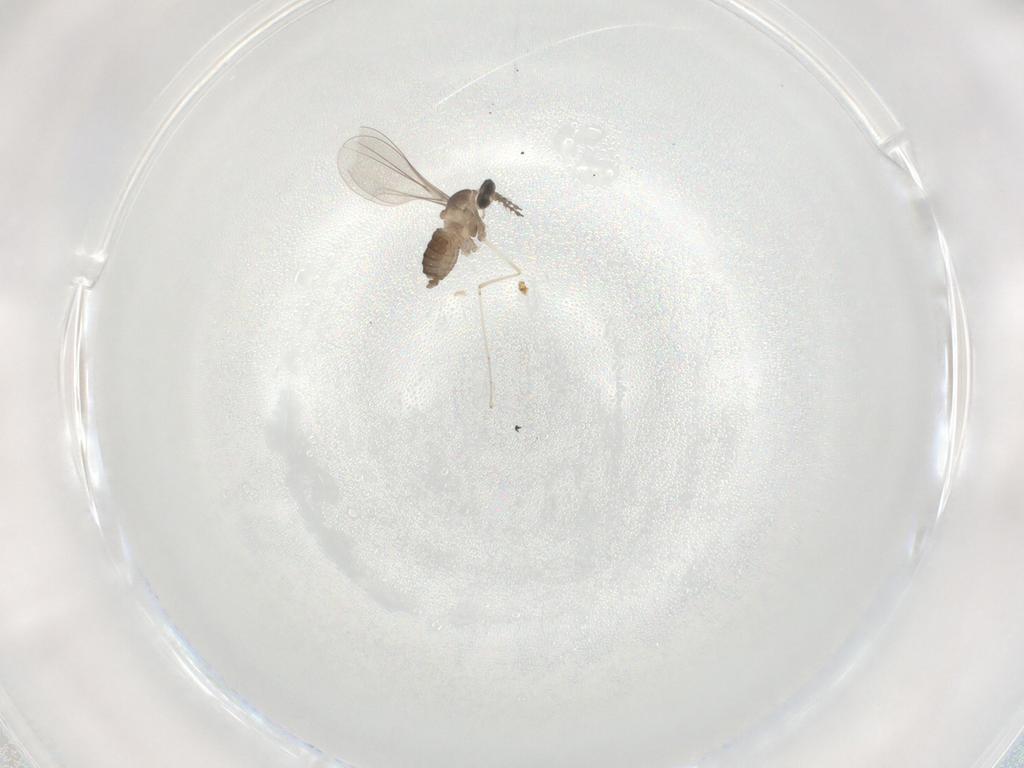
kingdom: Animalia
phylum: Arthropoda
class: Insecta
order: Diptera
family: Cecidomyiidae
